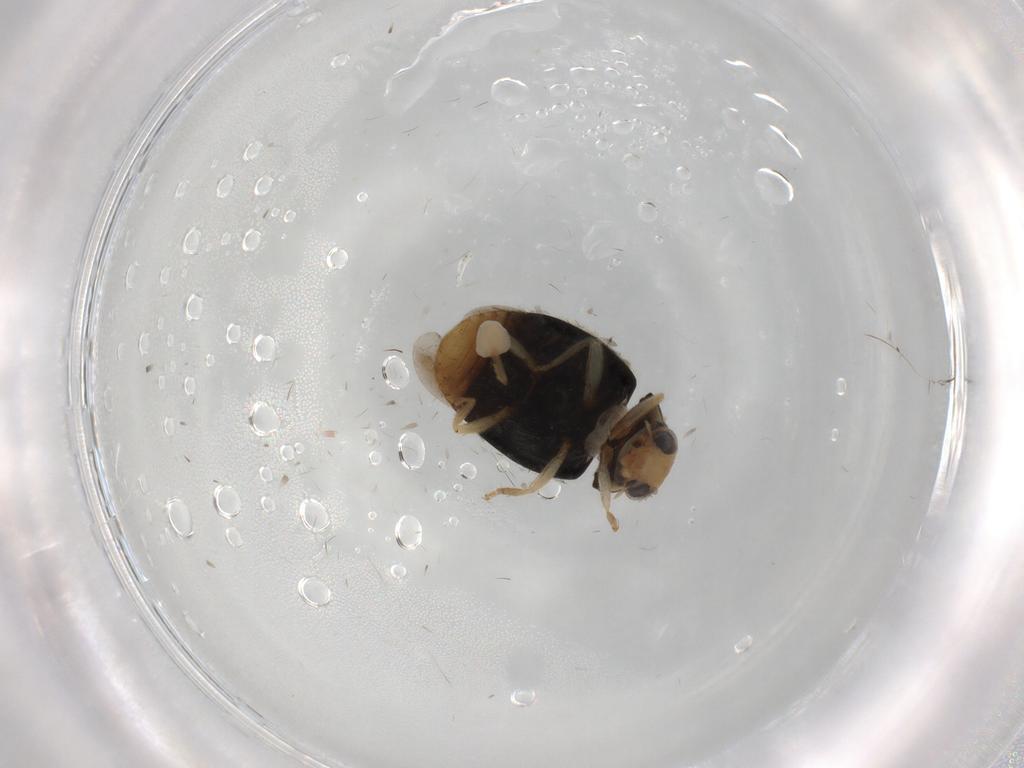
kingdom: Animalia
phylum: Arthropoda
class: Insecta
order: Coleoptera
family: Aderidae
